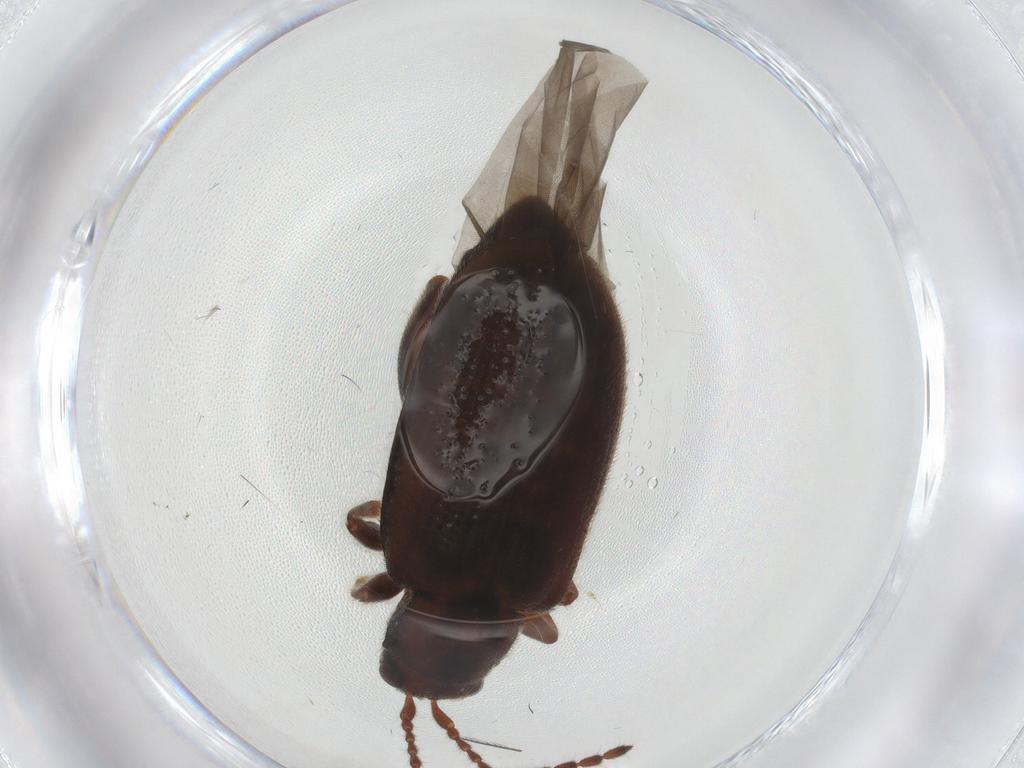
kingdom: Animalia
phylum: Arthropoda
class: Insecta
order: Coleoptera
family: Chrysomelidae
